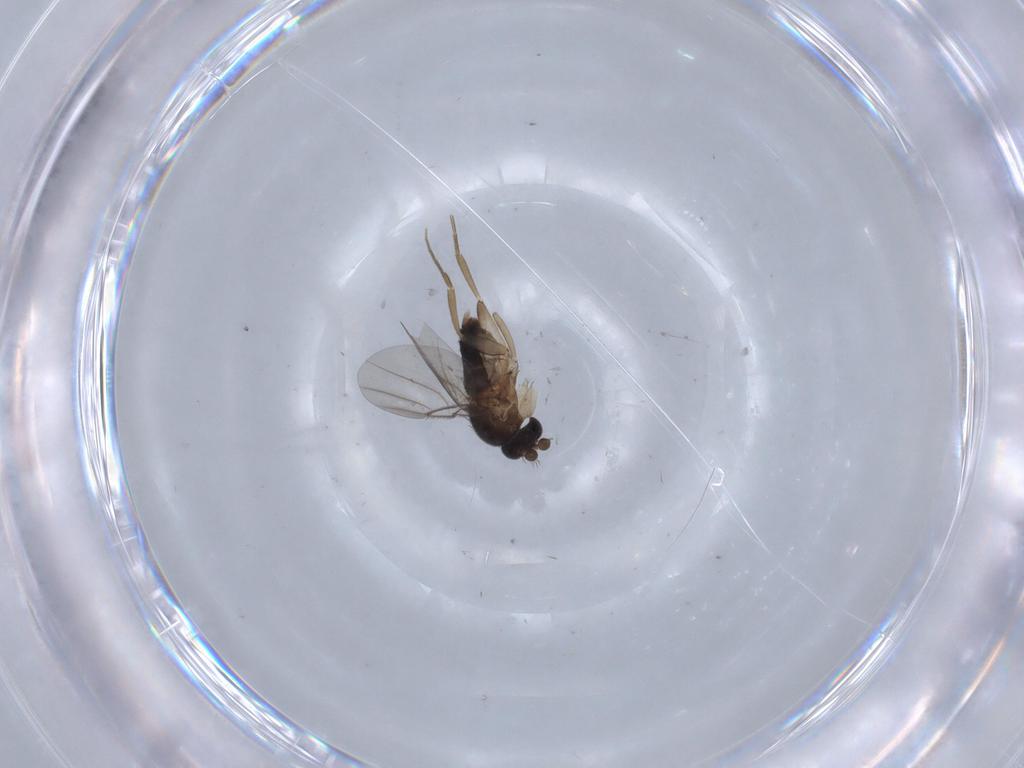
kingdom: Animalia
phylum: Arthropoda
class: Insecta
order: Diptera
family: Phoridae
